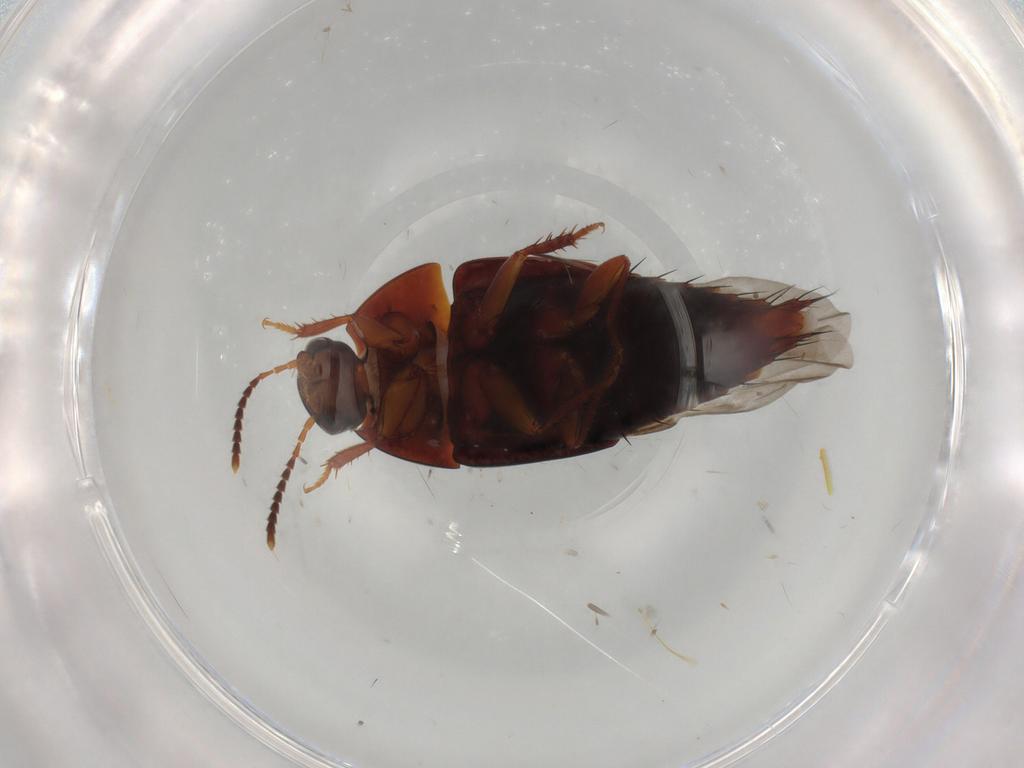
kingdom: Animalia
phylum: Arthropoda
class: Insecta
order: Coleoptera
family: Staphylinidae
